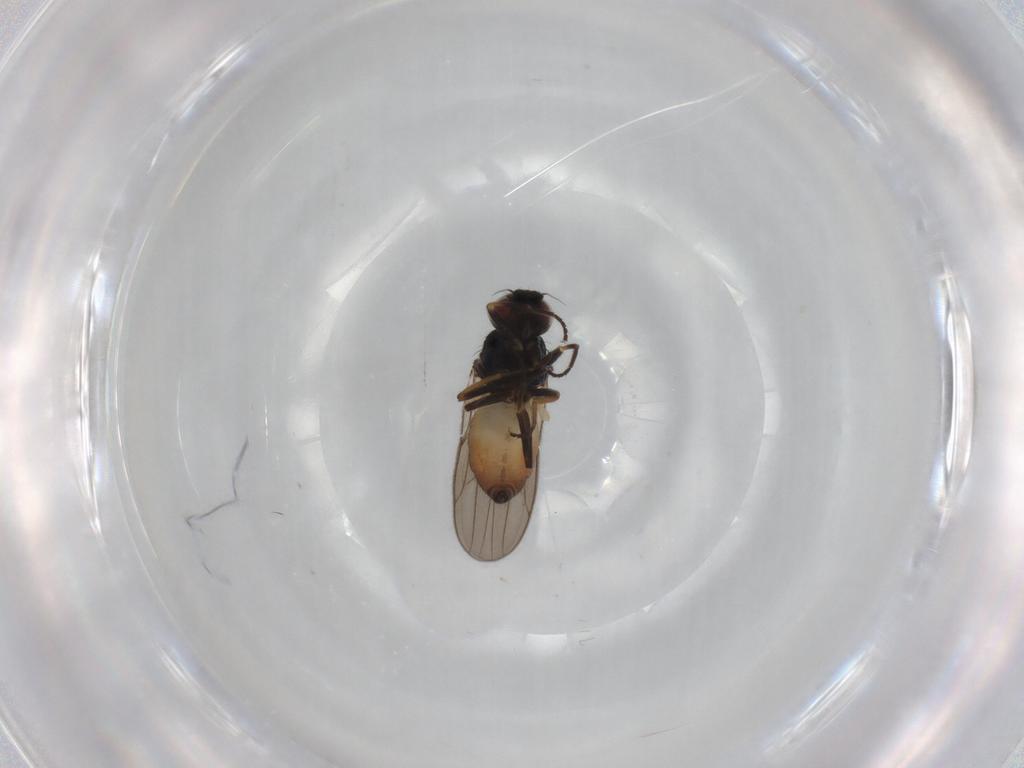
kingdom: Animalia
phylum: Arthropoda
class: Insecta
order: Diptera
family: Chloropidae
